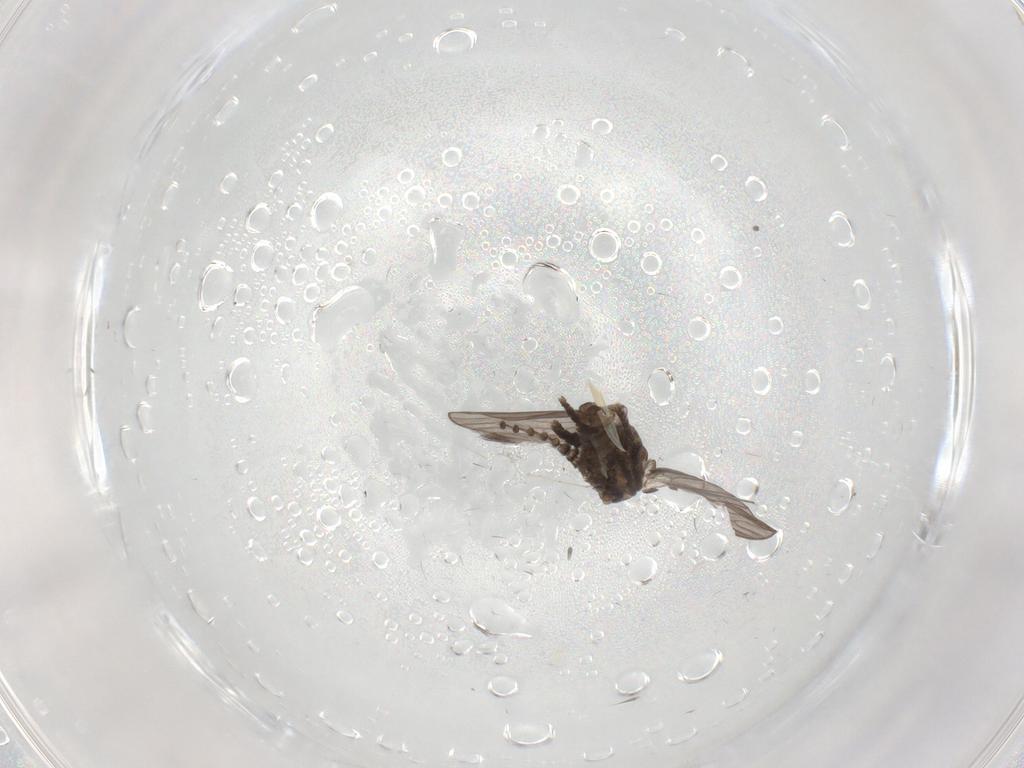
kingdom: Animalia
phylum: Arthropoda
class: Insecta
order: Diptera
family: Psychodidae
